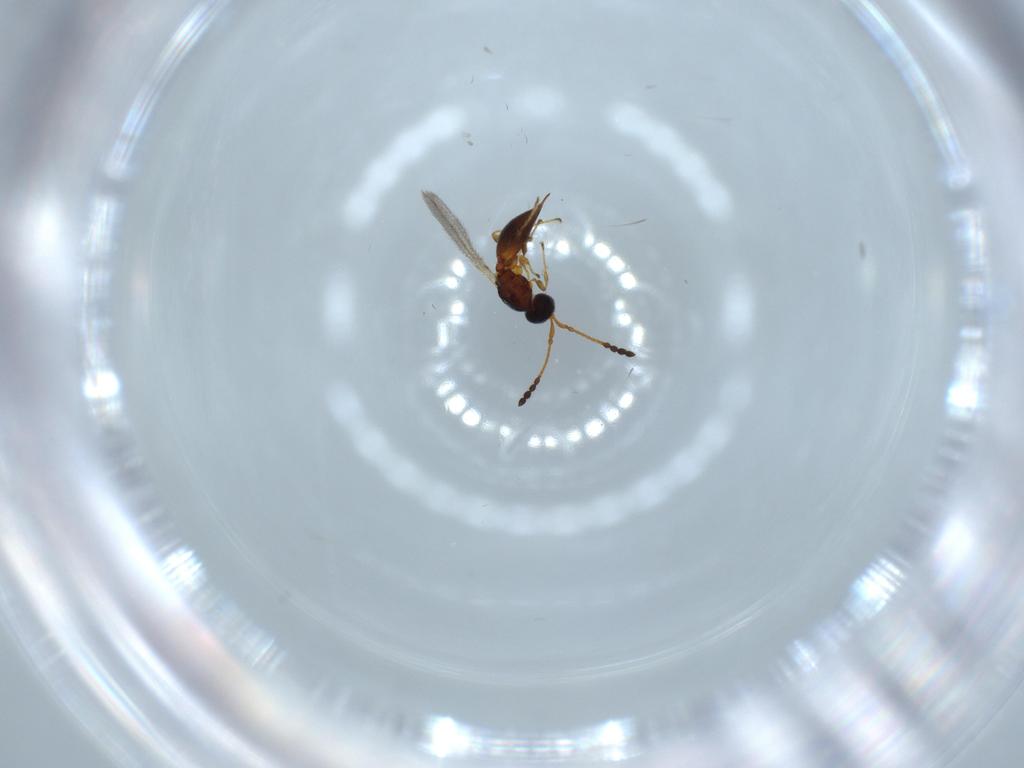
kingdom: Animalia
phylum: Arthropoda
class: Insecta
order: Hymenoptera
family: Diapriidae
